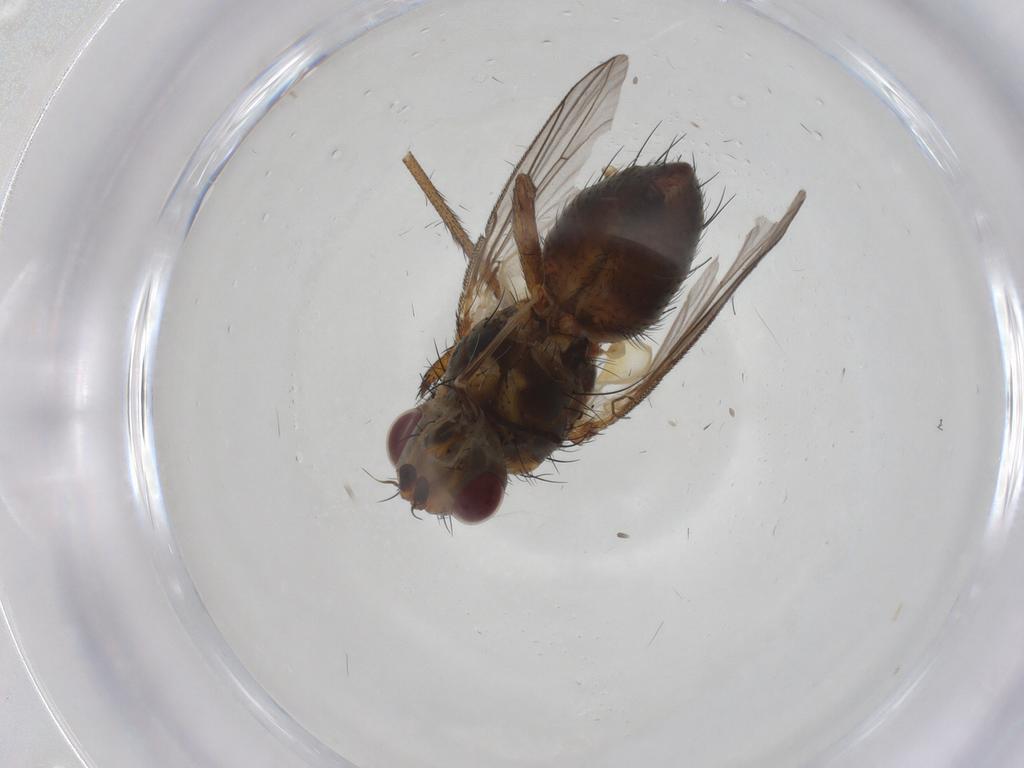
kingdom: Animalia
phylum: Arthropoda
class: Insecta
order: Diptera
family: Tachinidae
